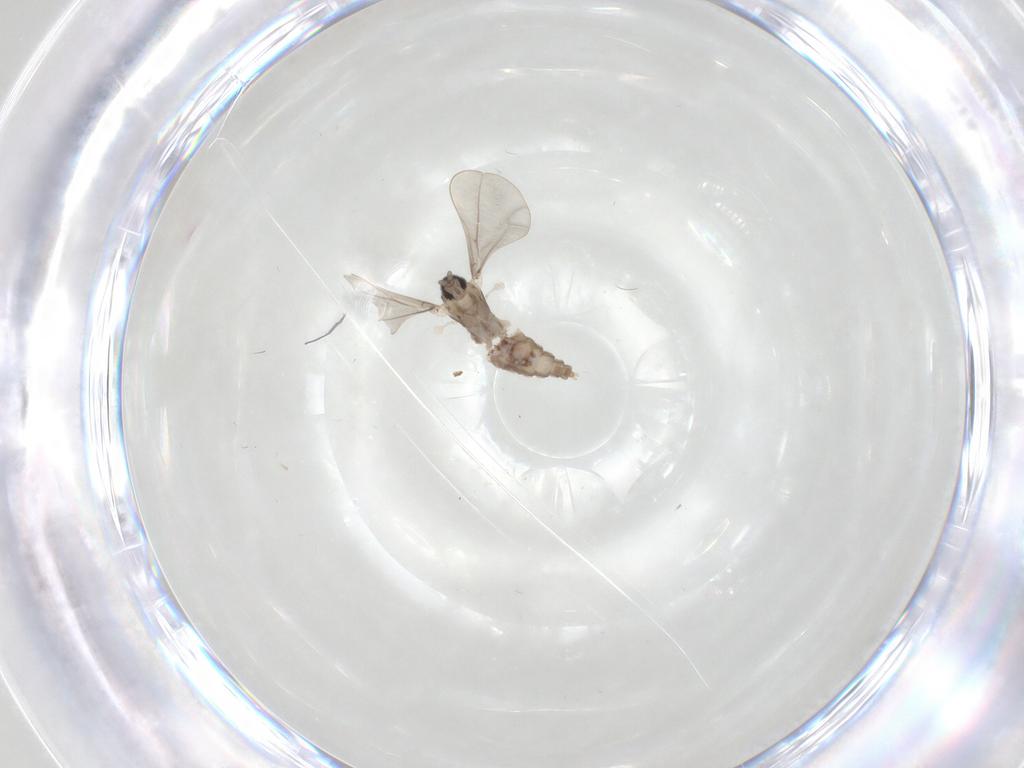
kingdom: Animalia
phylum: Arthropoda
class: Insecta
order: Diptera
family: Cecidomyiidae
